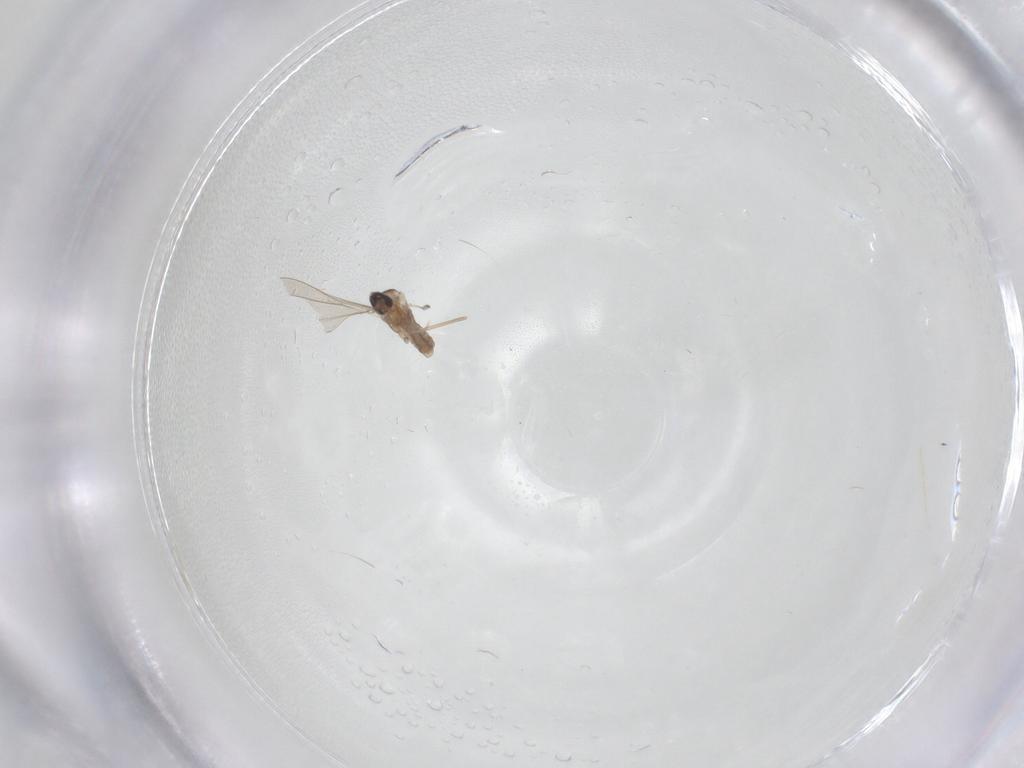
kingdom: Animalia
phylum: Arthropoda
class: Insecta
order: Diptera
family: Cecidomyiidae
